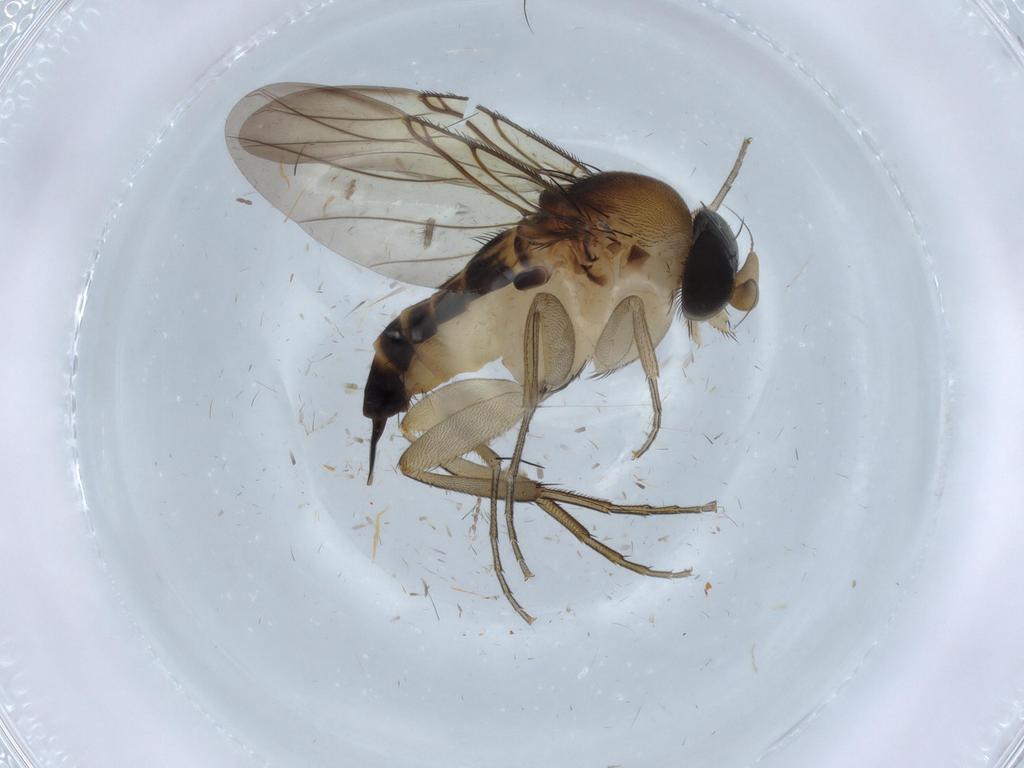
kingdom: Animalia
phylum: Arthropoda
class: Insecta
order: Diptera
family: Limoniidae
